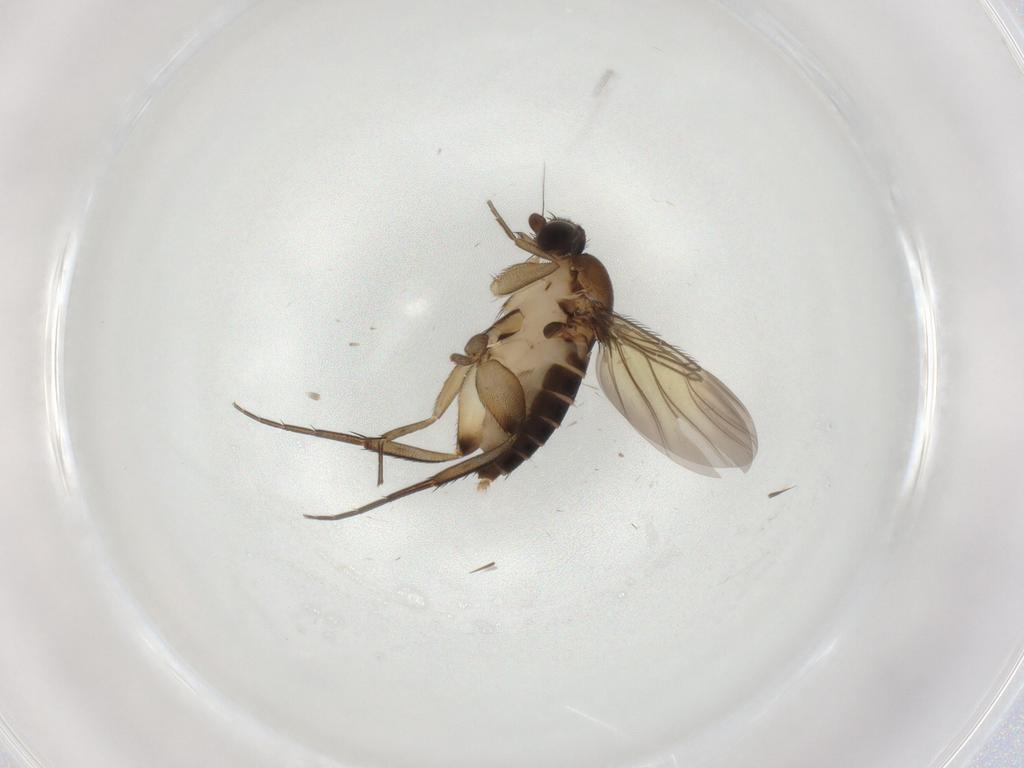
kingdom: Animalia
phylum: Arthropoda
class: Insecta
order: Diptera
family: Phoridae
